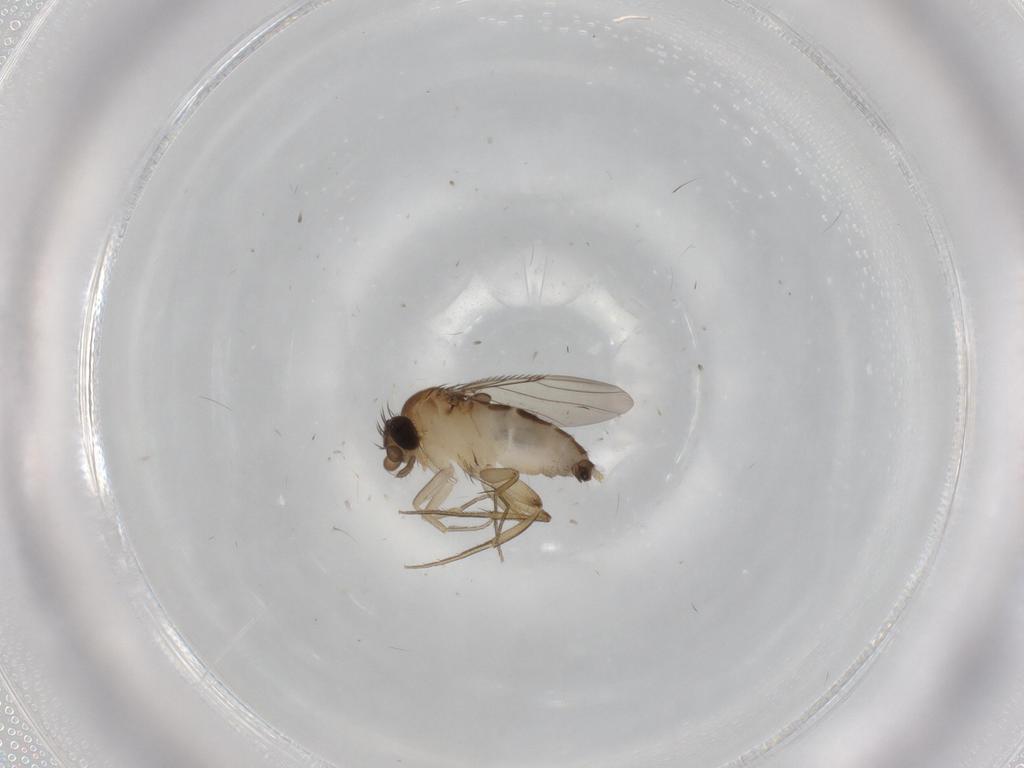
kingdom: Animalia
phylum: Arthropoda
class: Insecta
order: Diptera
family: Phoridae
